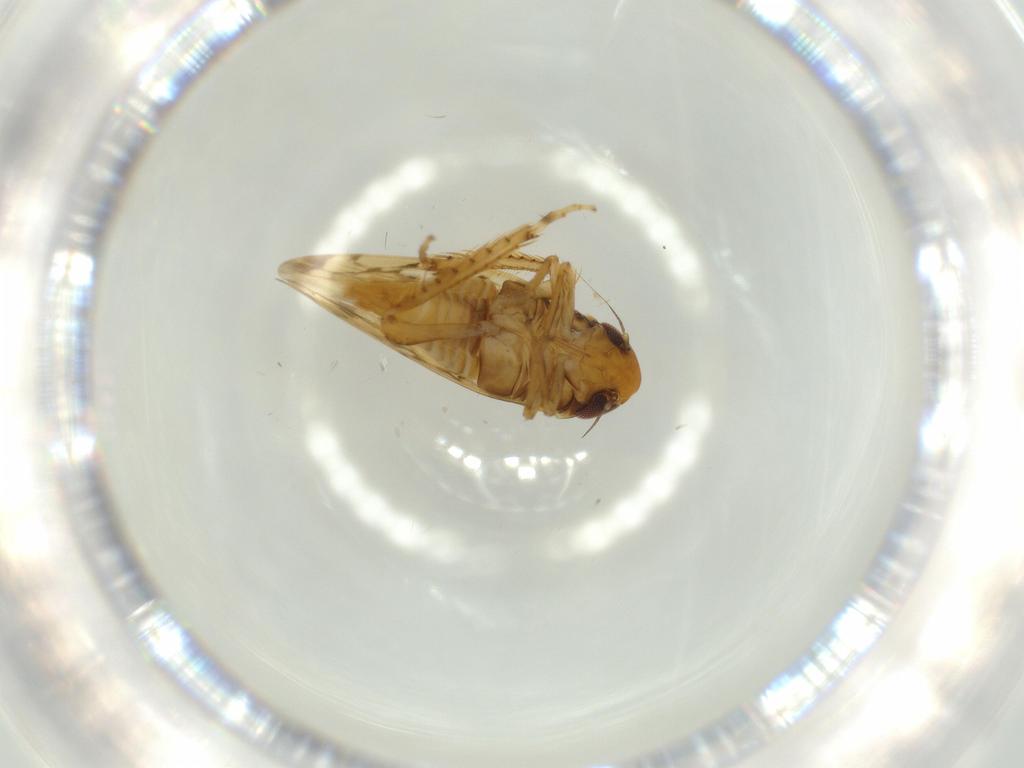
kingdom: Animalia
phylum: Arthropoda
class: Insecta
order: Hemiptera
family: Cicadellidae
